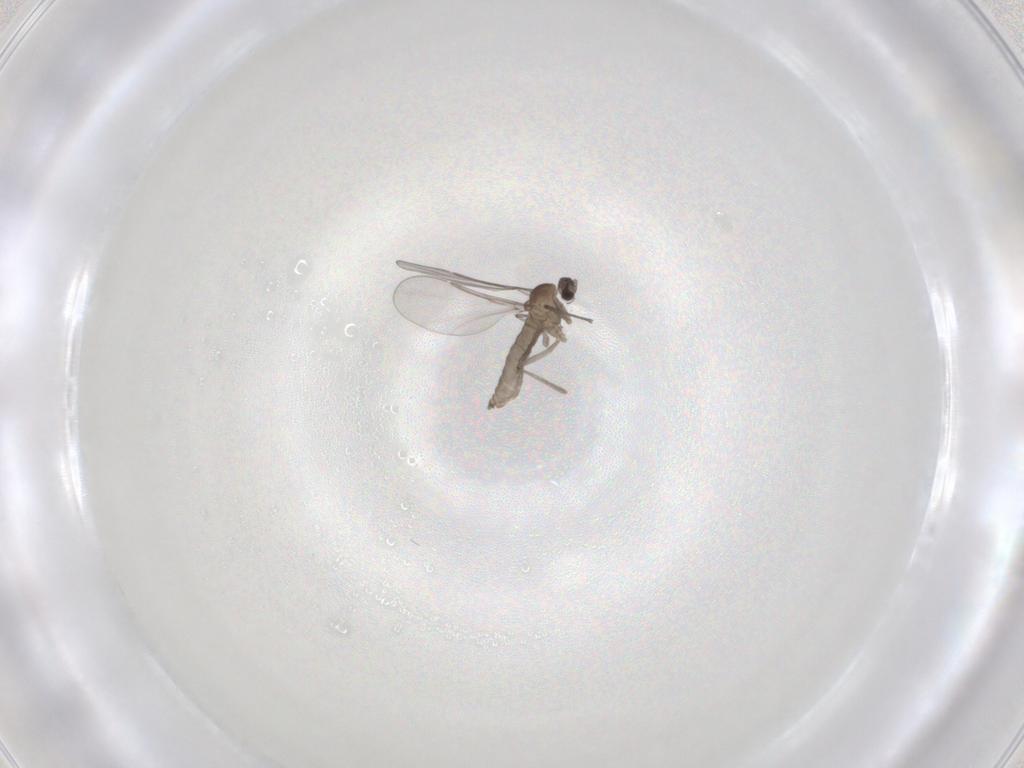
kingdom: Animalia
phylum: Arthropoda
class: Insecta
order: Diptera
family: Cecidomyiidae
